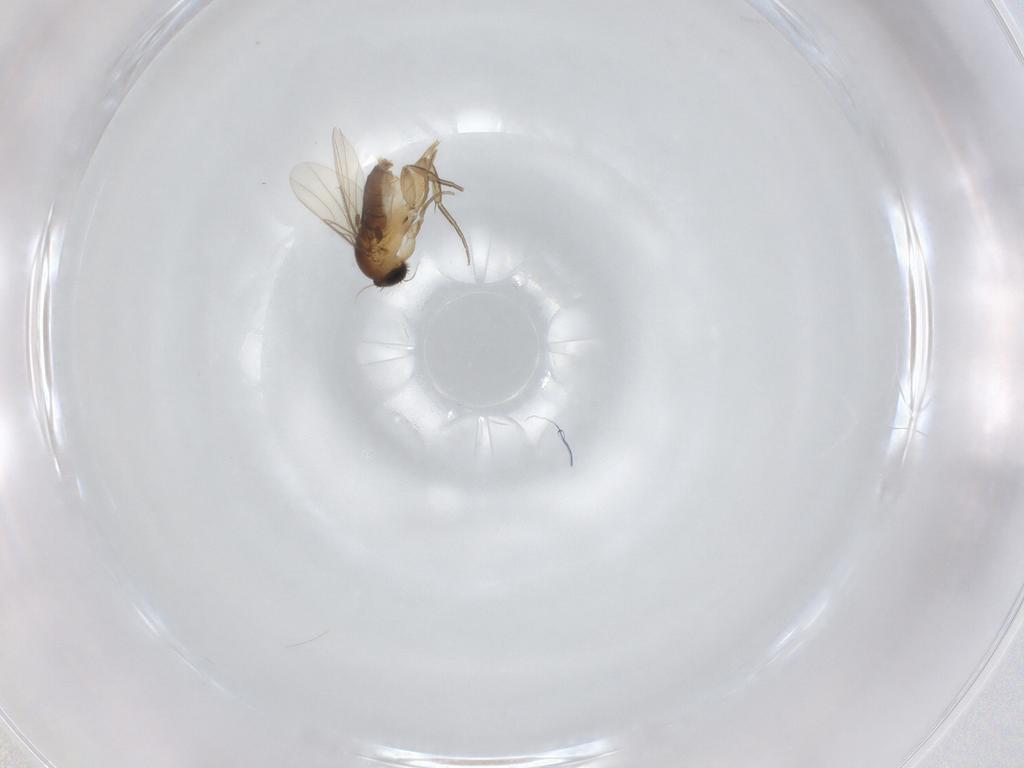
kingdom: Animalia
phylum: Arthropoda
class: Insecta
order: Diptera
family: Phoridae
